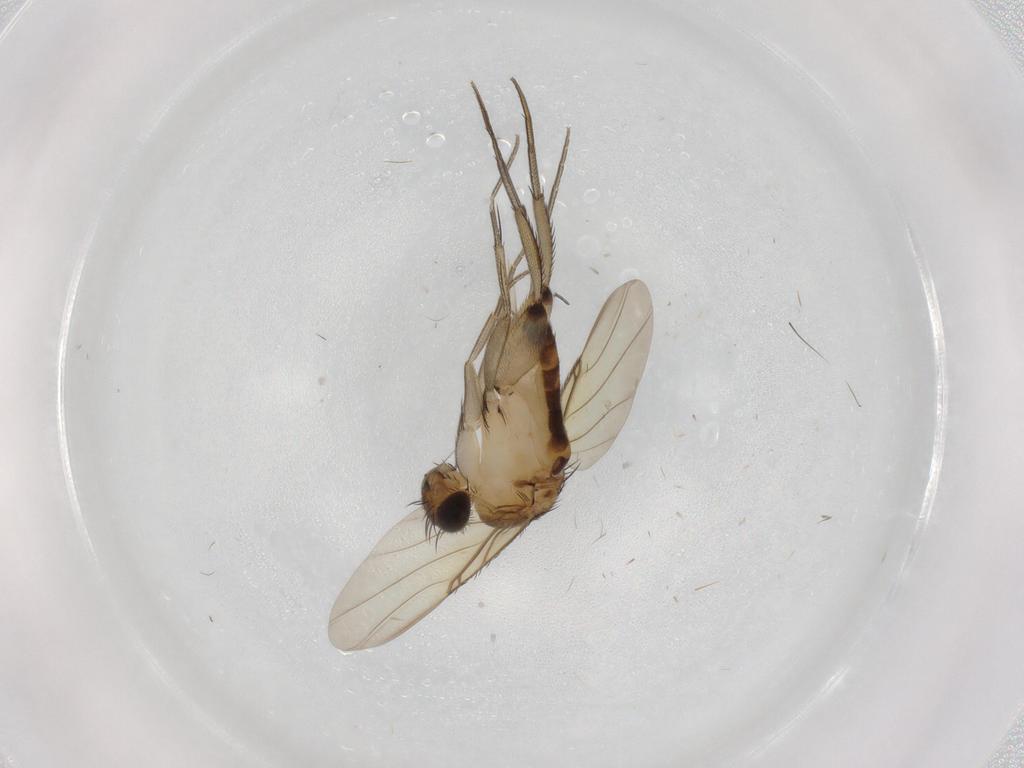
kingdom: Animalia
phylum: Arthropoda
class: Insecta
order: Diptera
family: Phoridae
